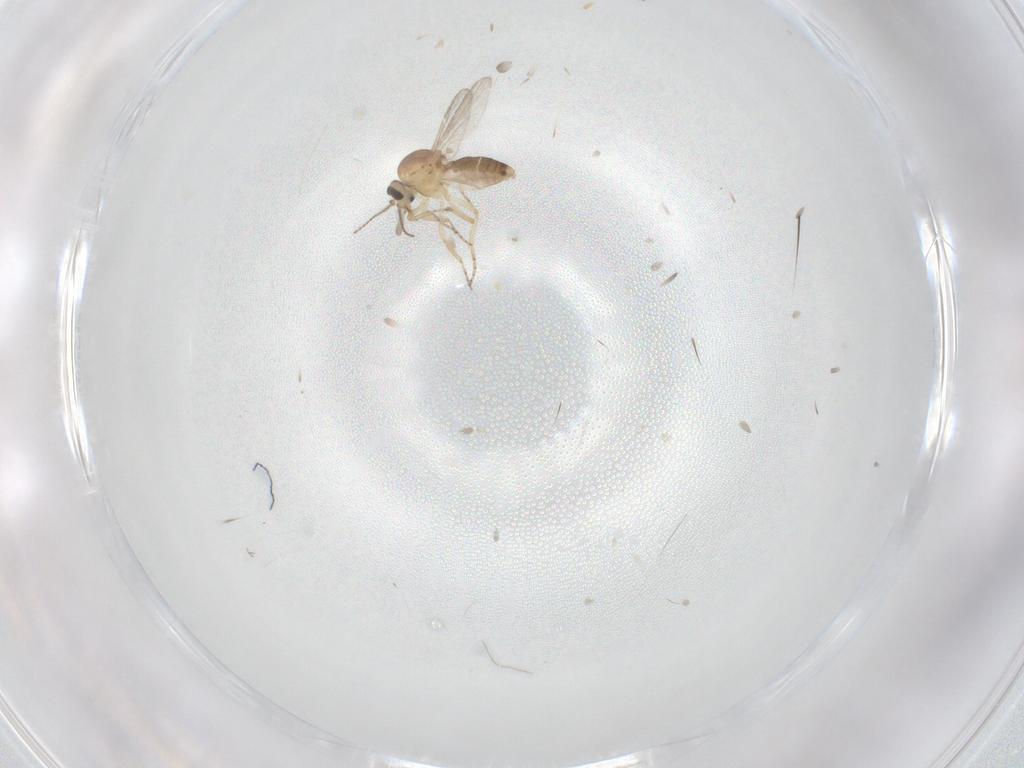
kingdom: Animalia
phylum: Arthropoda
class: Insecta
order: Diptera
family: Ceratopogonidae
